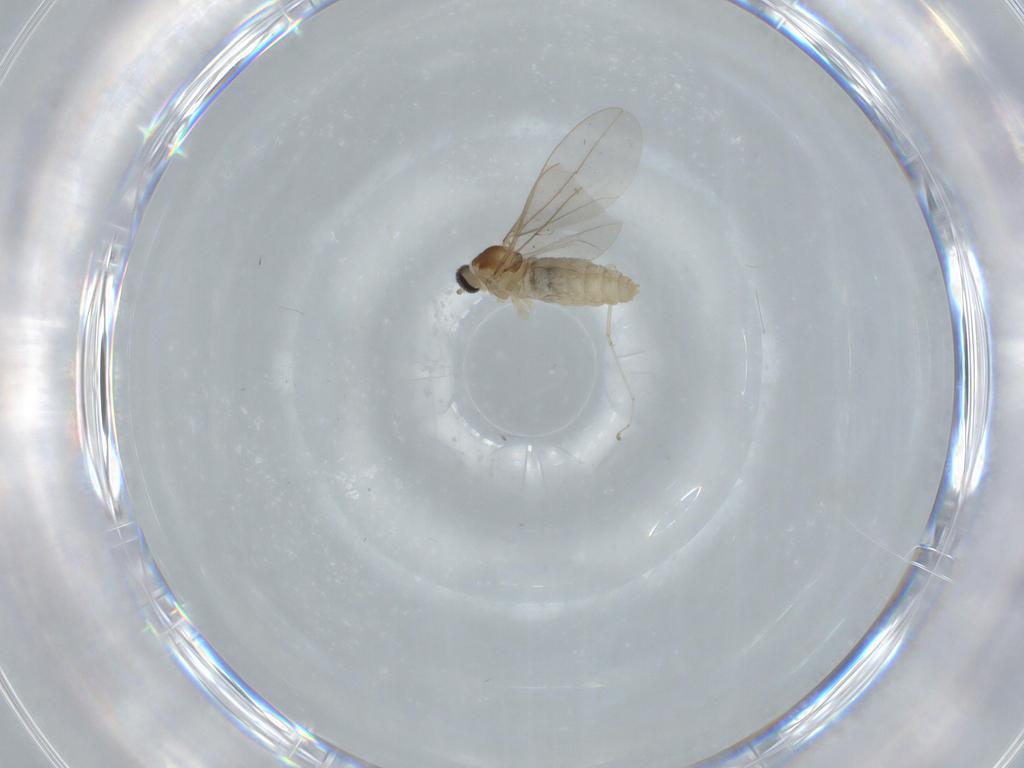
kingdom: Animalia
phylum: Arthropoda
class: Insecta
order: Diptera
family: Cecidomyiidae
